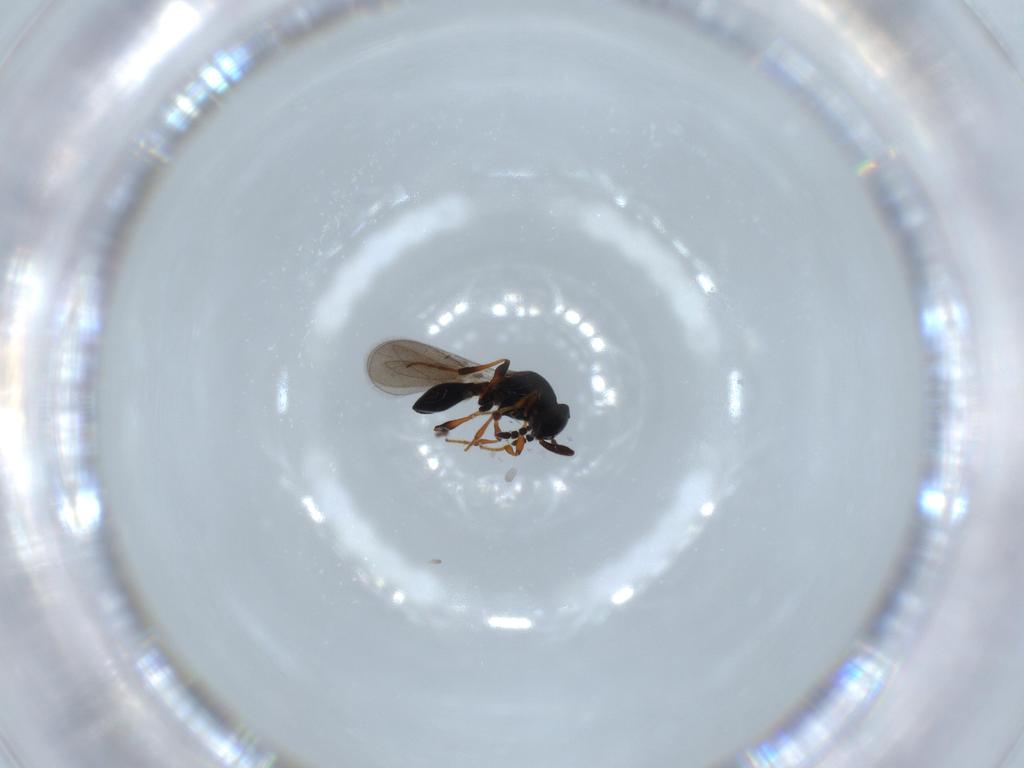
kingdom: Animalia
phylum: Arthropoda
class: Insecta
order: Hymenoptera
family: Platygastridae
